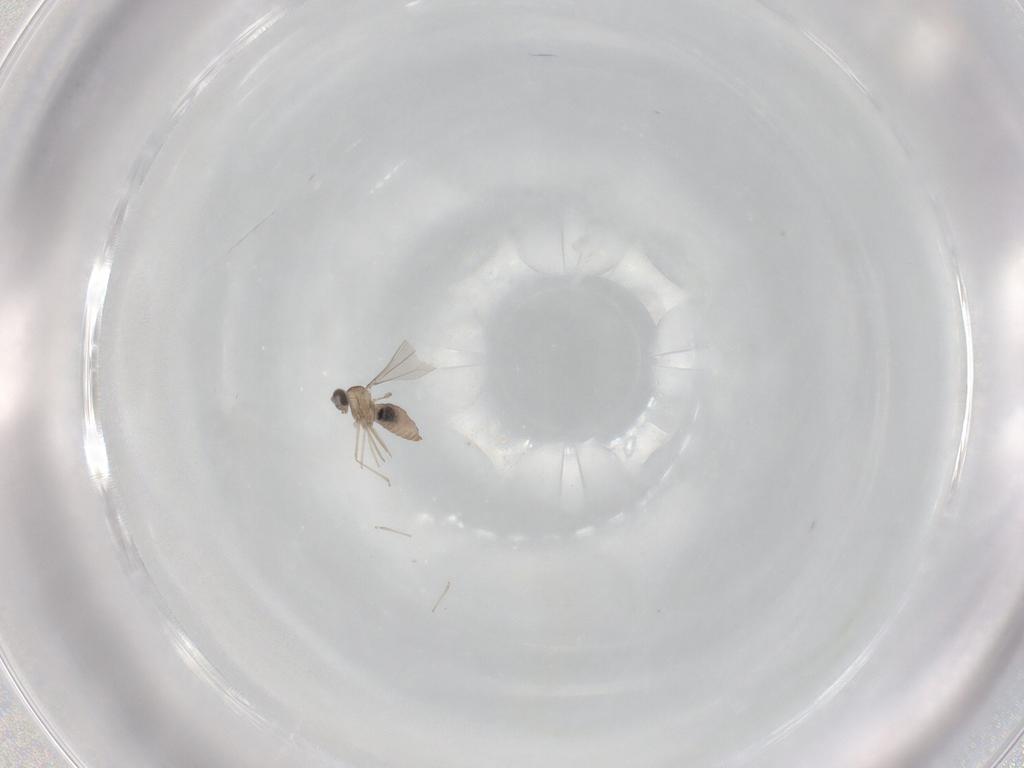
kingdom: Animalia
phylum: Arthropoda
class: Insecta
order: Diptera
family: Cecidomyiidae
